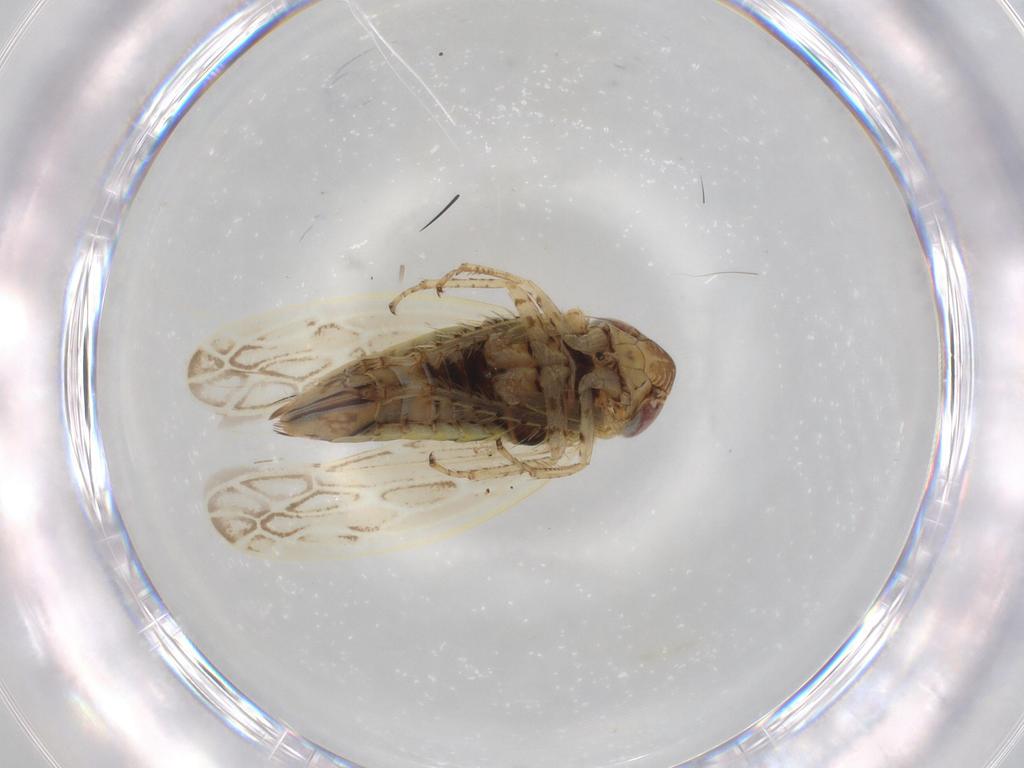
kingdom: Animalia
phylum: Arthropoda
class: Insecta
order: Hemiptera
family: Cicadellidae
